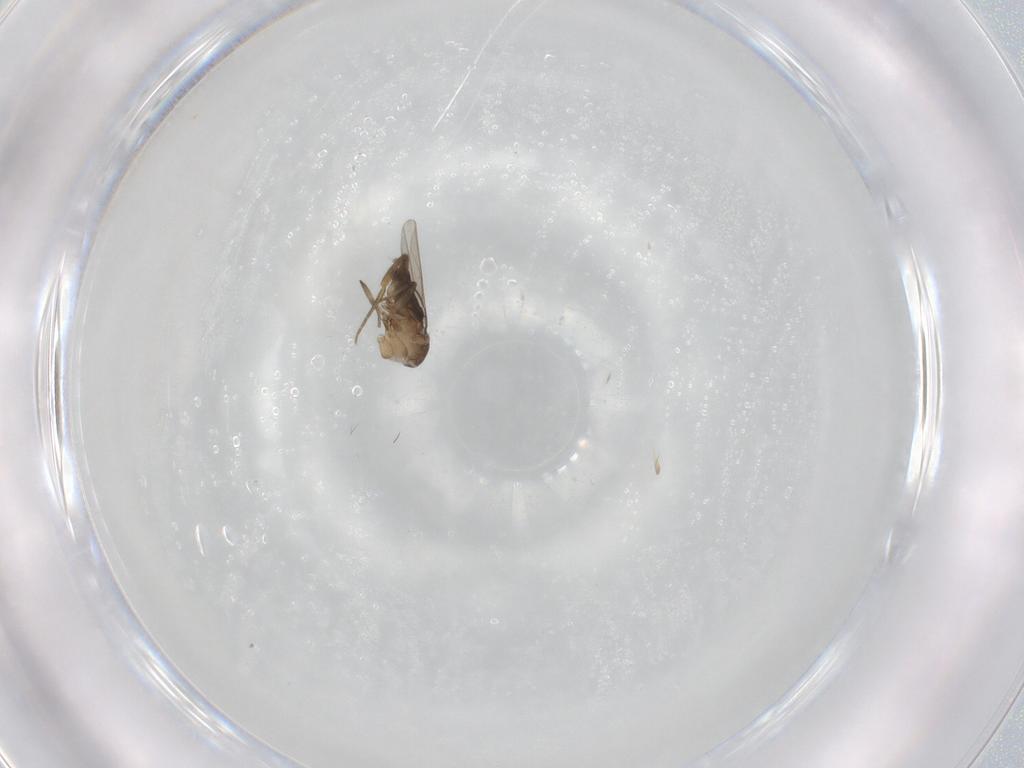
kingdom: Animalia
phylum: Arthropoda
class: Insecta
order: Diptera
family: Phoridae
